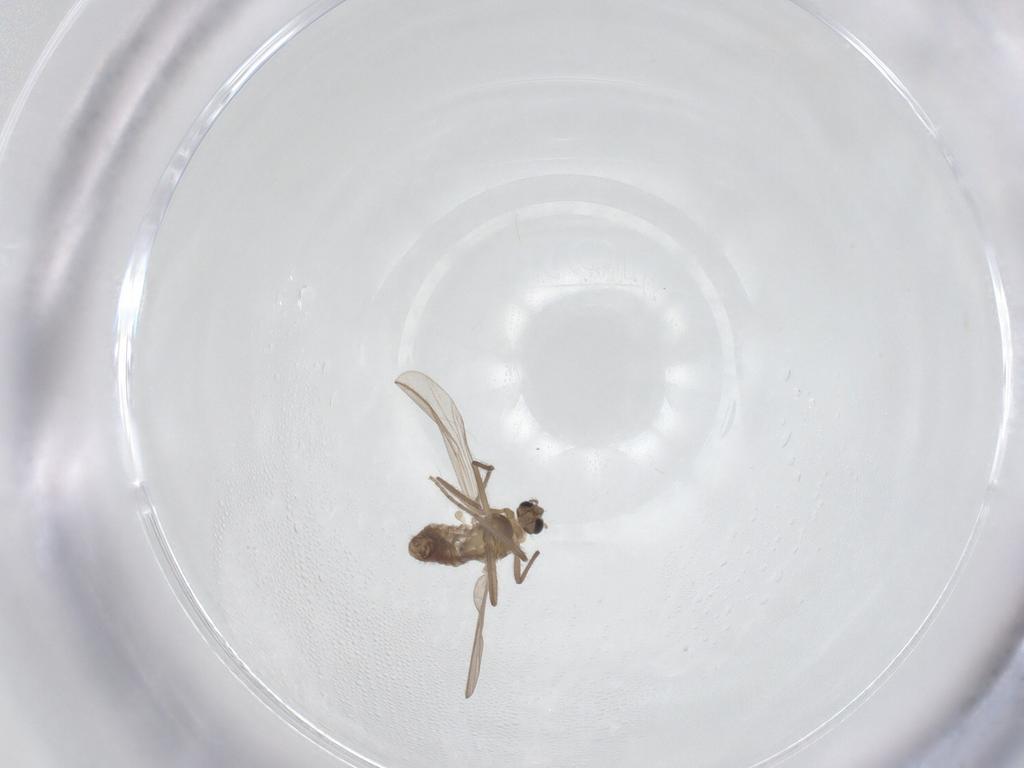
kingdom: Animalia
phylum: Arthropoda
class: Insecta
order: Diptera
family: Chironomidae
